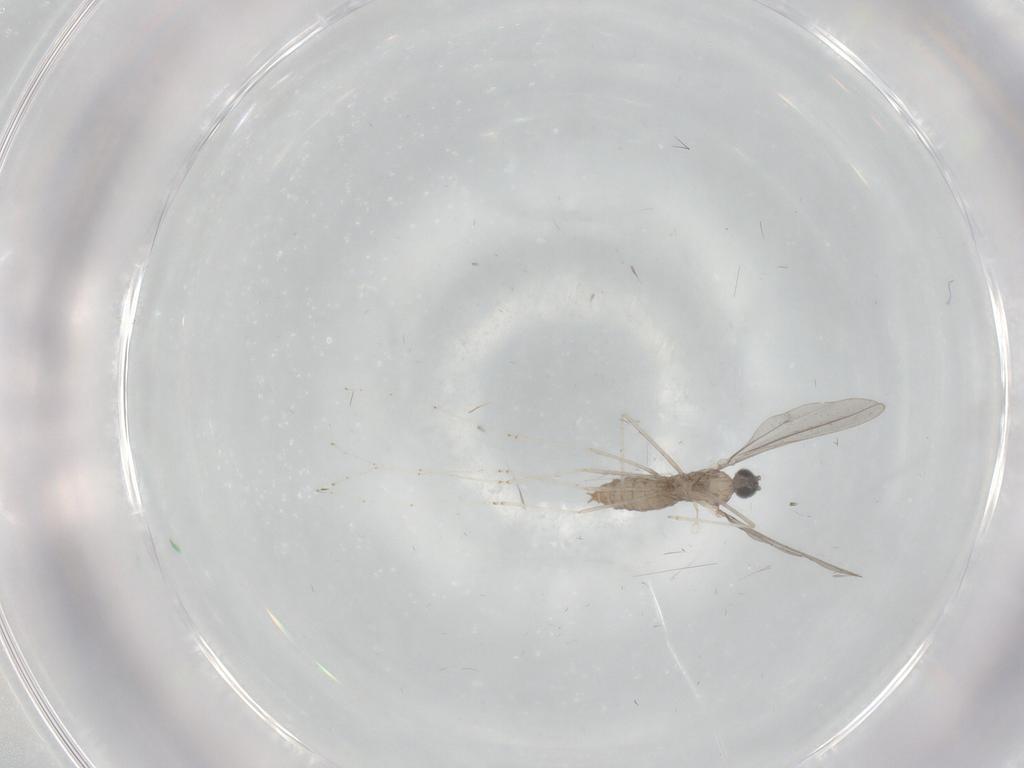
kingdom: Animalia
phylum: Arthropoda
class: Insecta
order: Diptera
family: Cecidomyiidae
